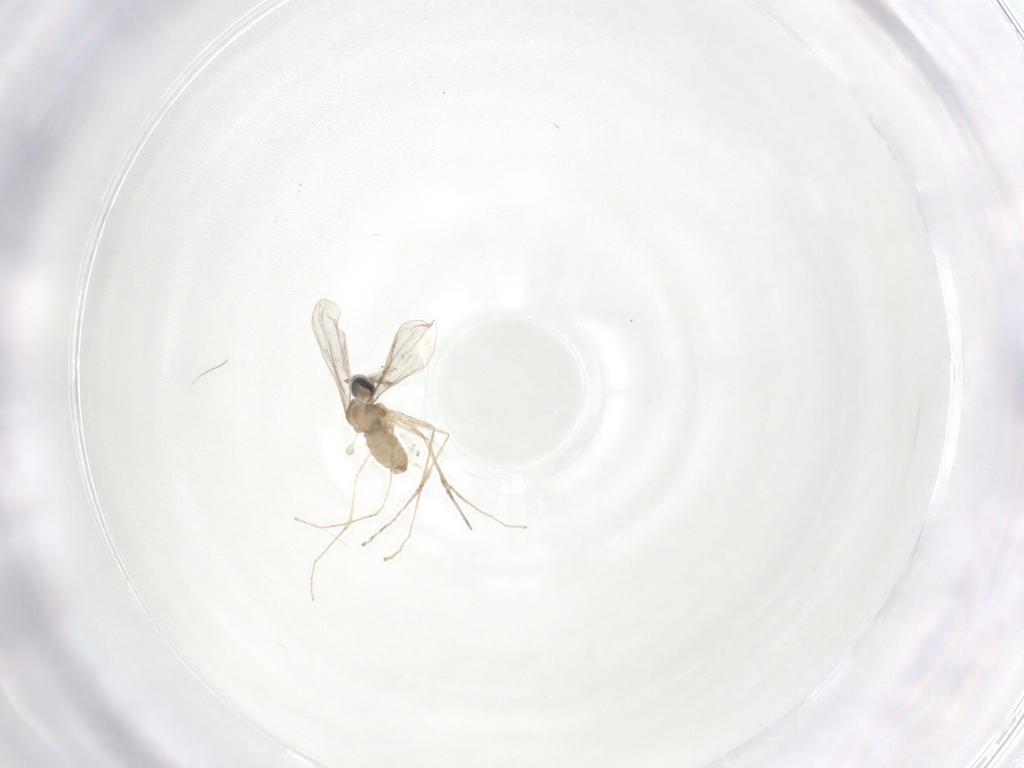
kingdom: Animalia
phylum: Arthropoda
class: Insecta
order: Diptera
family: Cecidomyiidae
